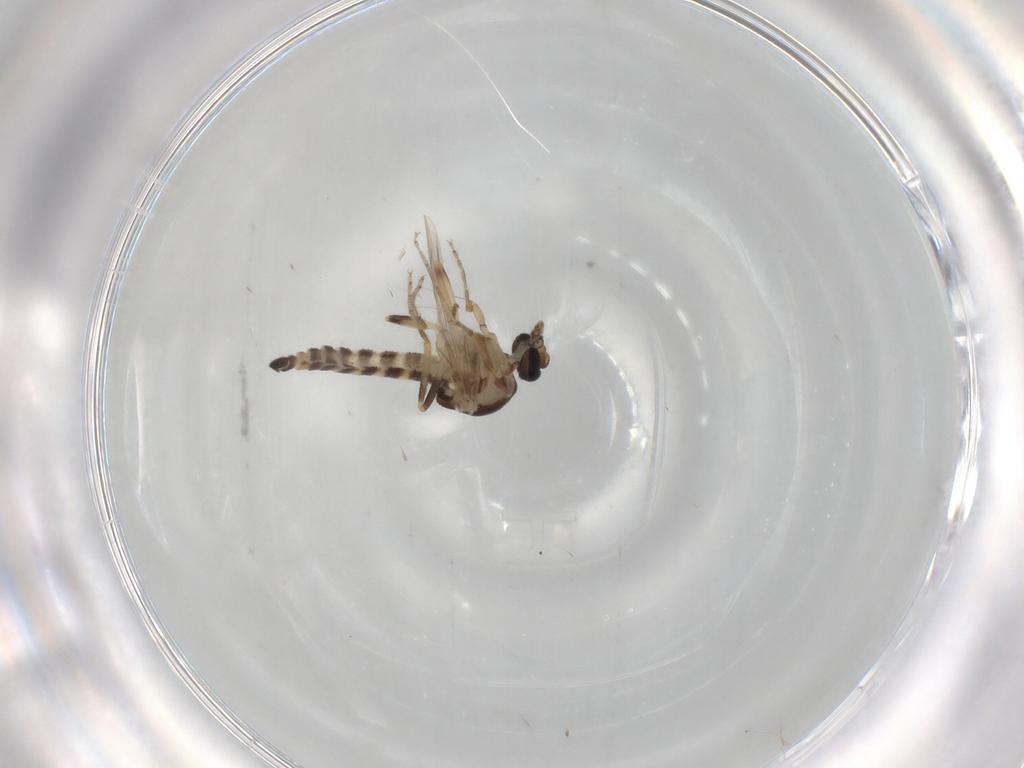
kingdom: Animalia
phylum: Arthropoda
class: Insecta
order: Diptera
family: Ceratopogonidae
